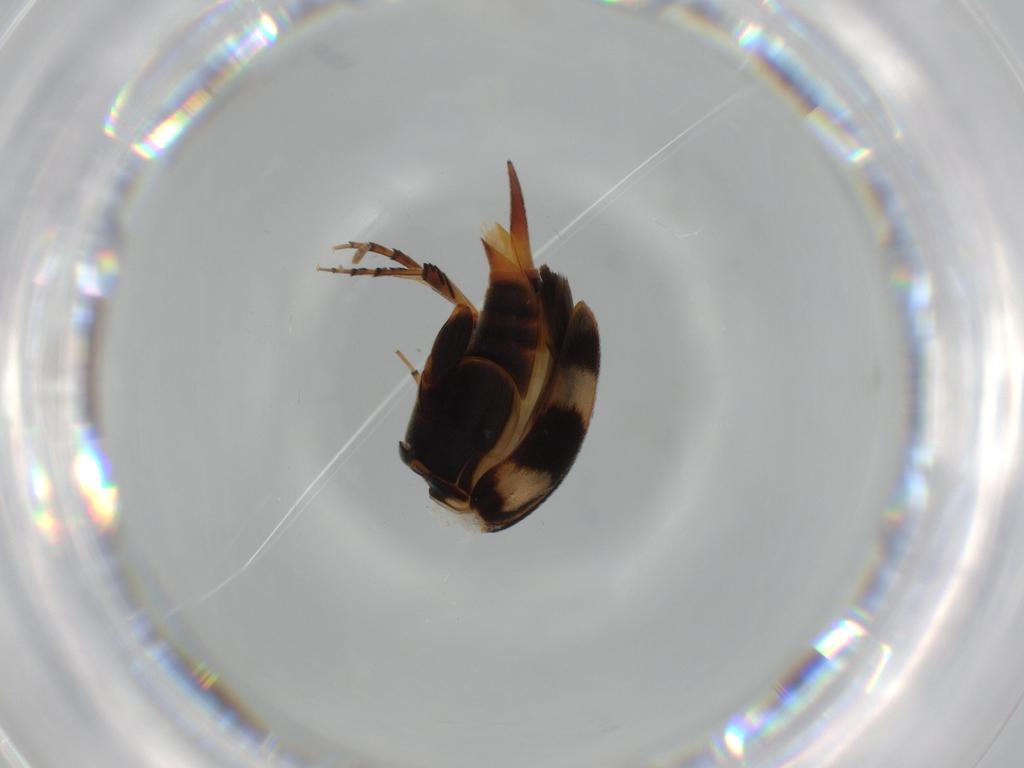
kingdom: Animalia
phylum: Arthropoda
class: Insecta
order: Coleoptera
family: Mordellidae
